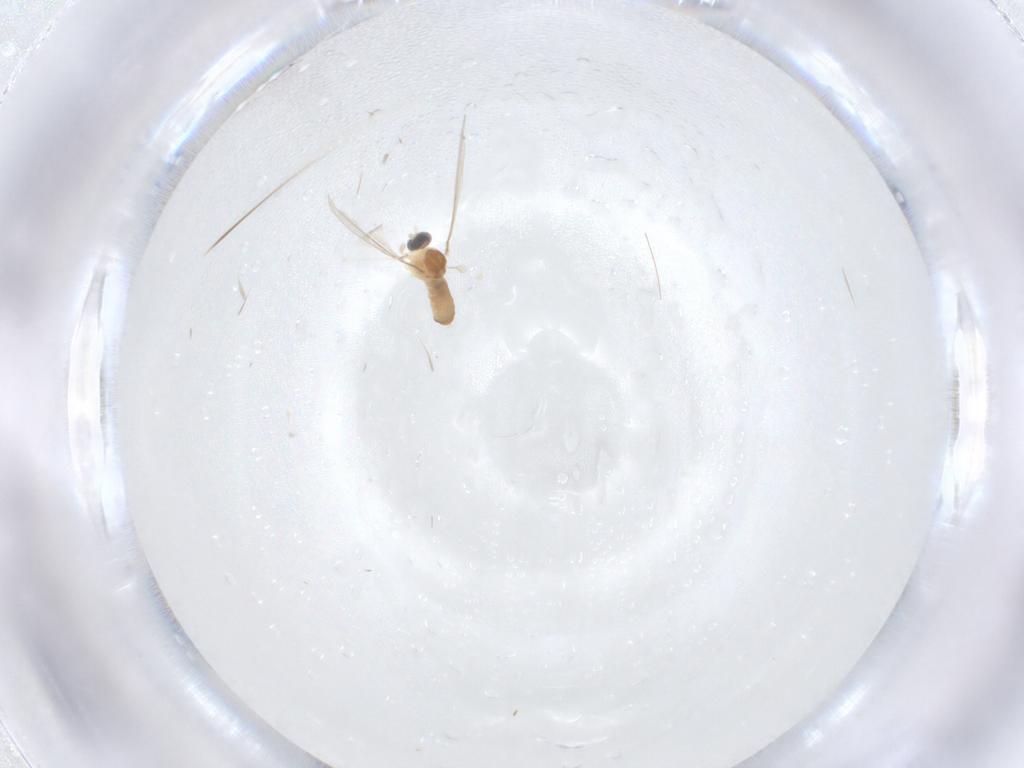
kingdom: Animalia
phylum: Arthropoda
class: Insecta
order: Diptera
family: Cecidomyiidae
